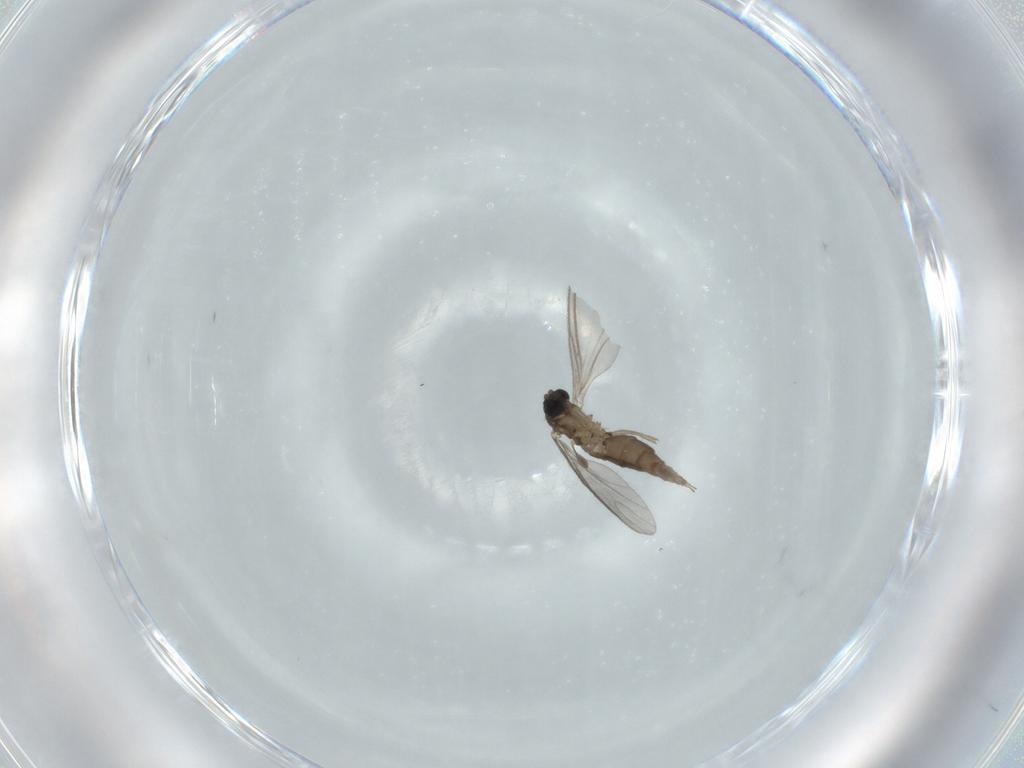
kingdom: Animalia
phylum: Arthropoda
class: Insecta
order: Diptera
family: Sciaridae
